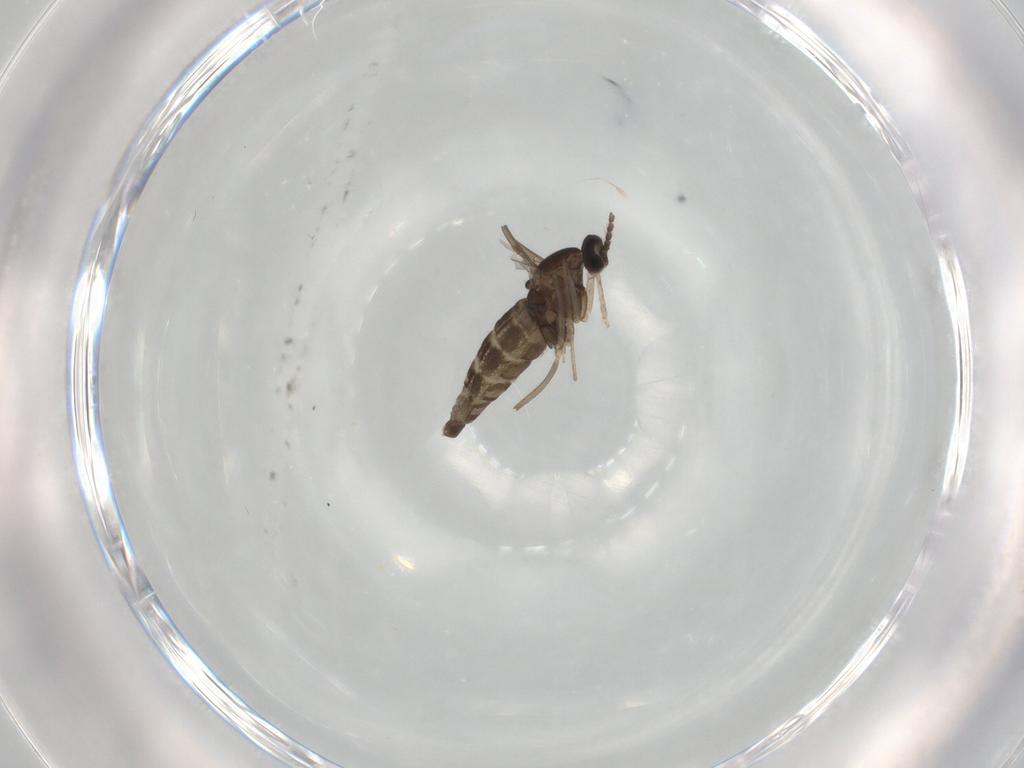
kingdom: Animalia
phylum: Arthropoda
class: Insecta
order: Diptera
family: Cecidomyiidae
